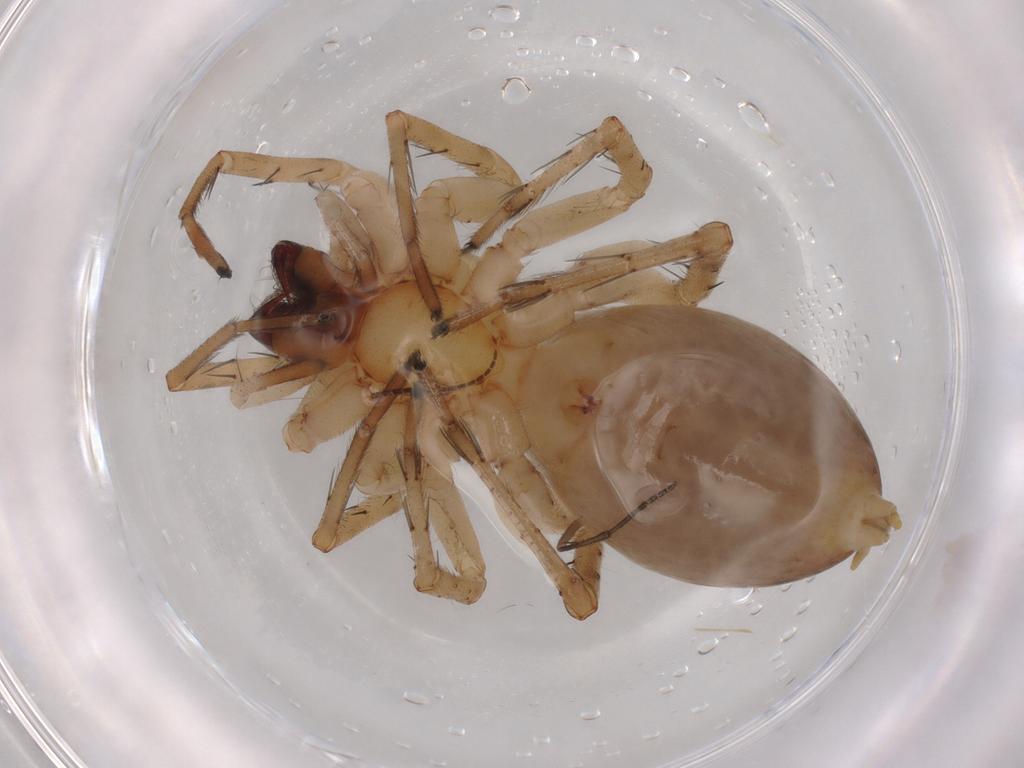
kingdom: Animalia
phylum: Arthropoda
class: Arachnida
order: Araneae
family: Anyphaenidae
